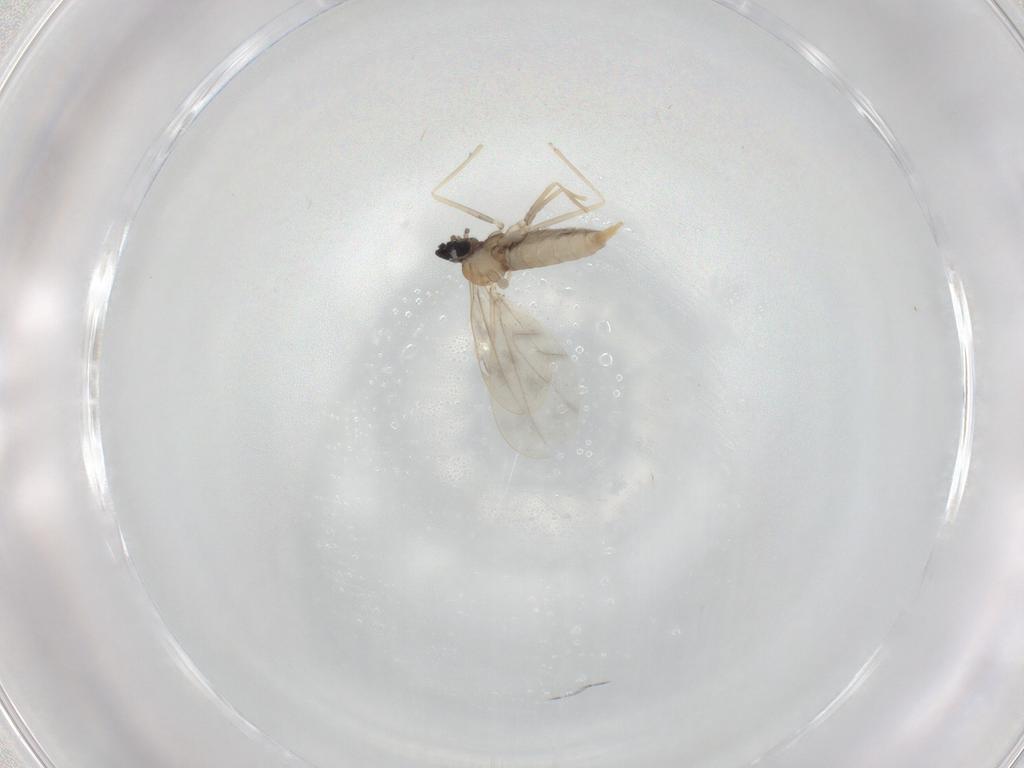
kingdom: Animalia
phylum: Arthropoda
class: Insecta
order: Diptera
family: Cecidomyiidae
